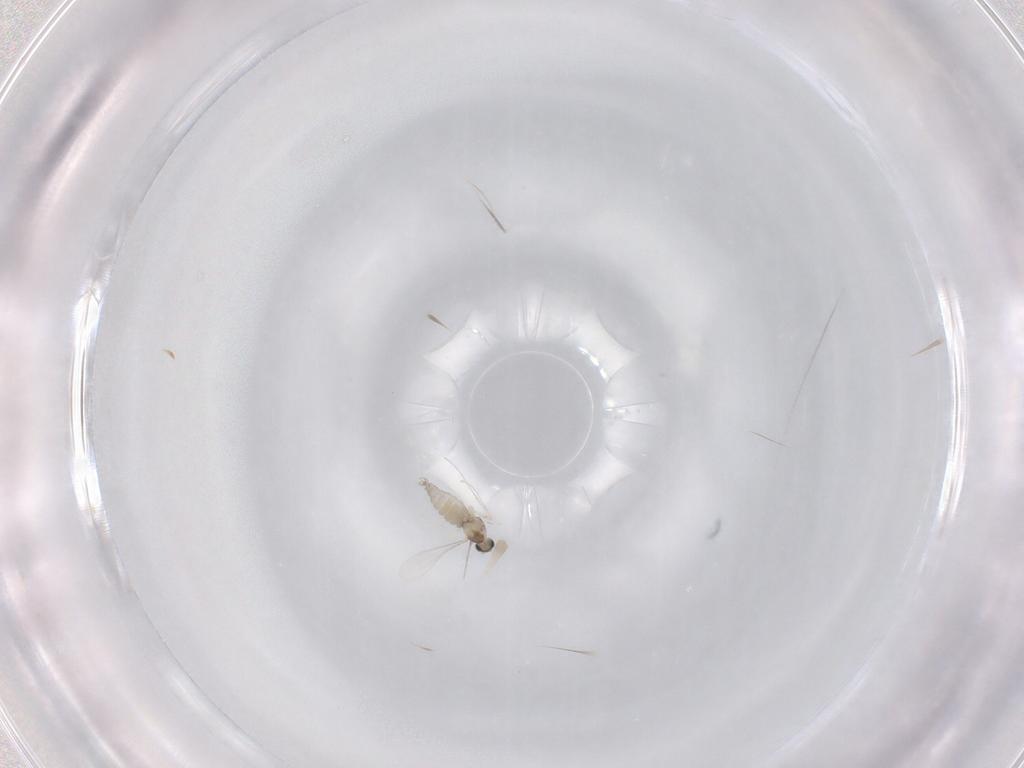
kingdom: Animalia
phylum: Arthropoda
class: Insecta
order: Diptera
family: Cecidomyiidae
